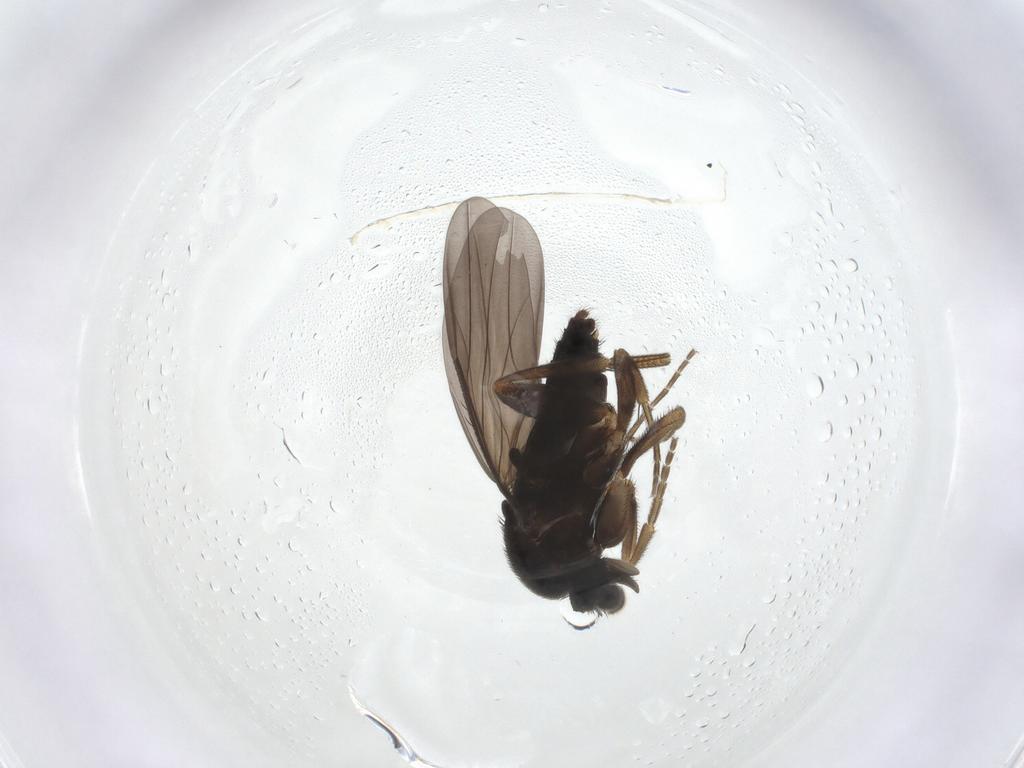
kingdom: Animalia
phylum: Arthropoda
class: Insecta
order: Diptera
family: Phoridae
